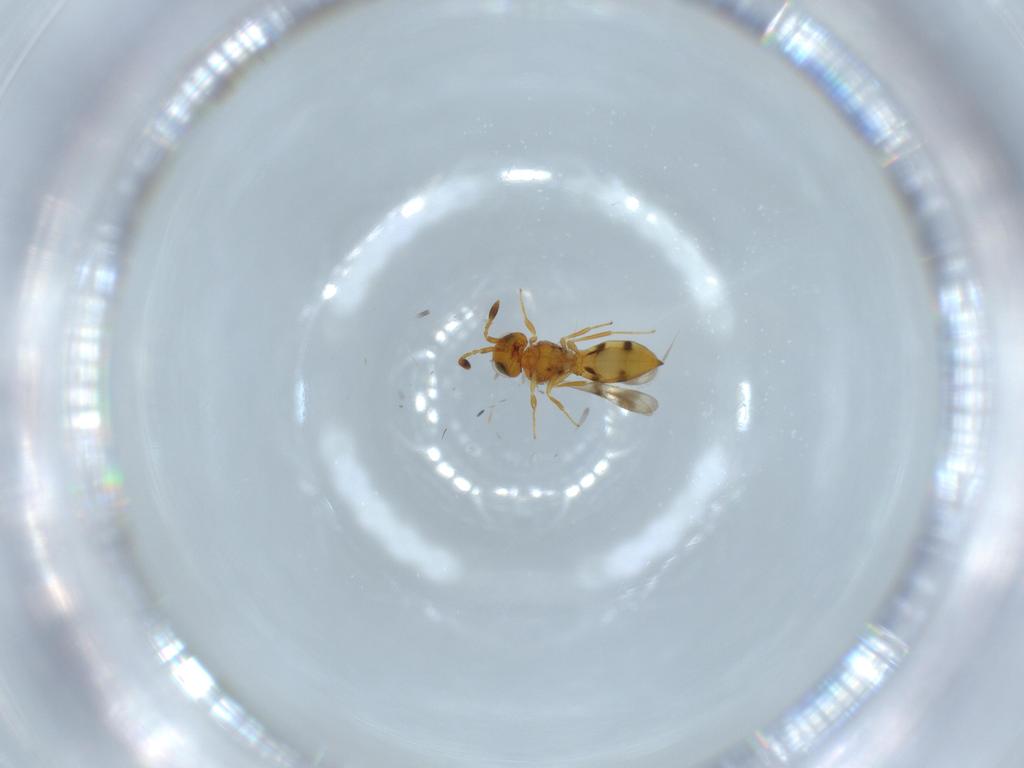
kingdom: Animalia
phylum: Arthropoda
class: Insecta
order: Hymenoptera
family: Scelionidae
